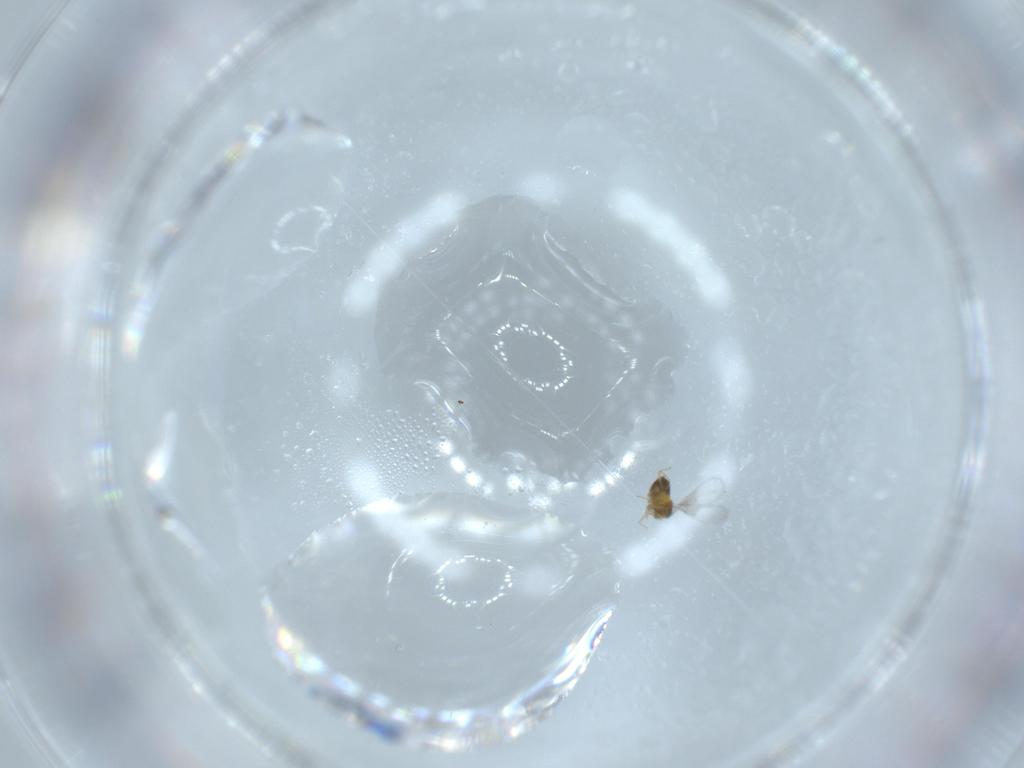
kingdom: Animalia
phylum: Arthropoda
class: Insecta
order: Hymenoptera
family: Trichogrammatidae
